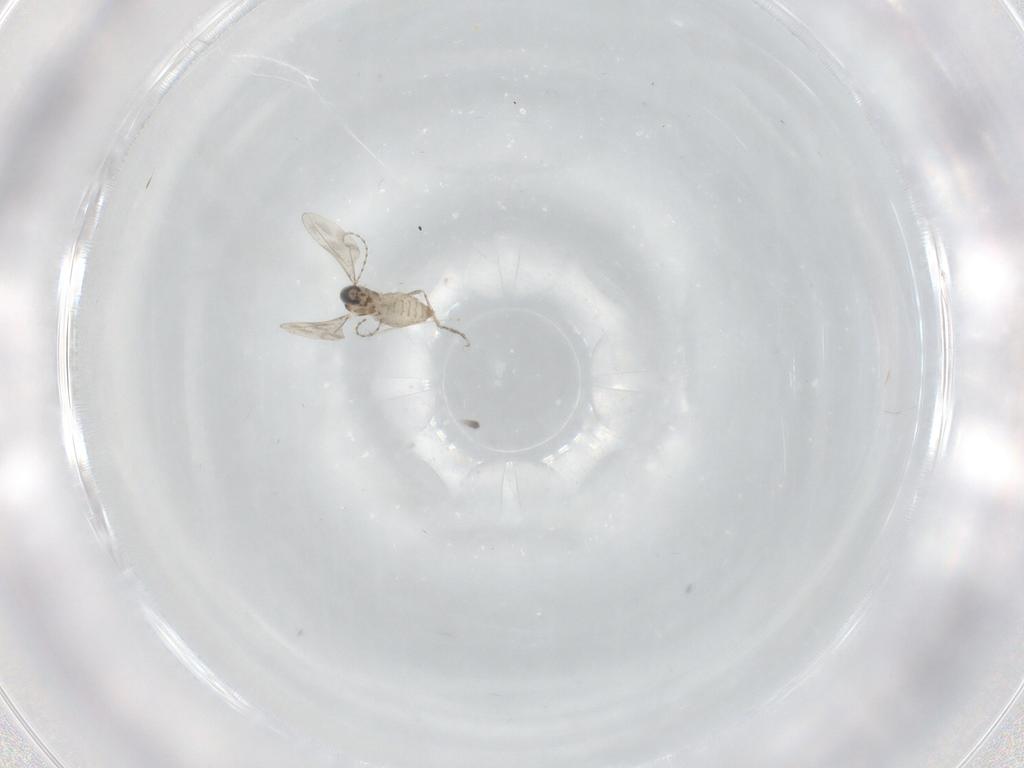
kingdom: Animalia
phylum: Arthropoda
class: Insecta
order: Diptera
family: Cecidomyiidae
